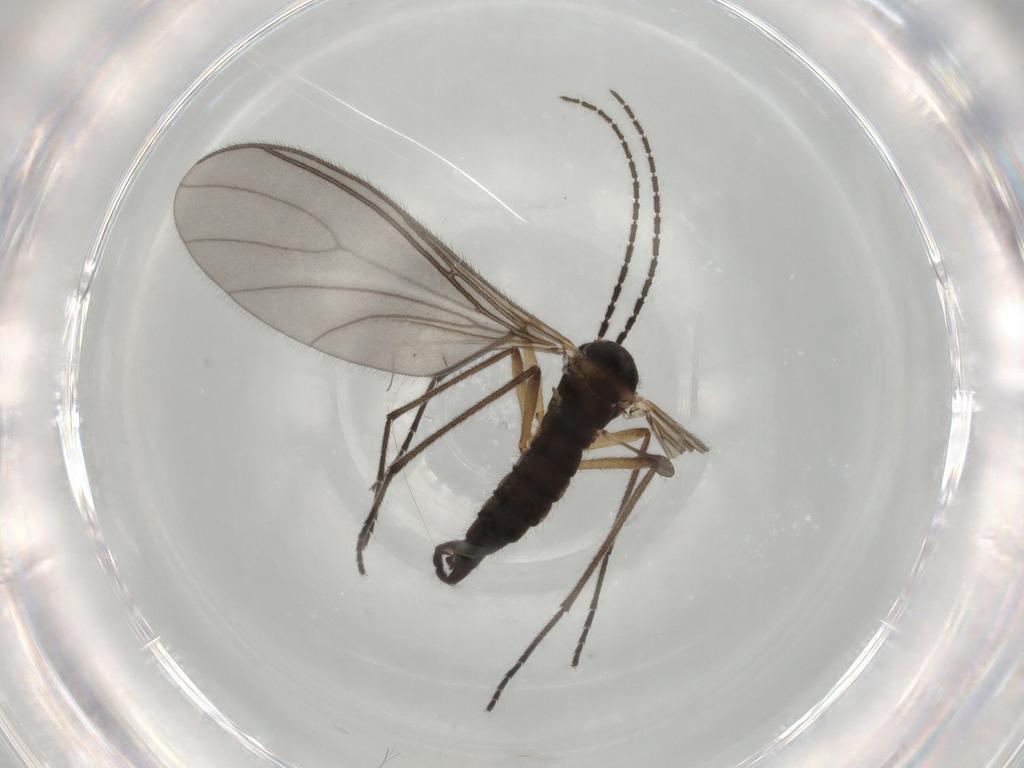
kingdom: Animalia
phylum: Arthropoda
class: Insecta
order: Diptera
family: Sciaridae
